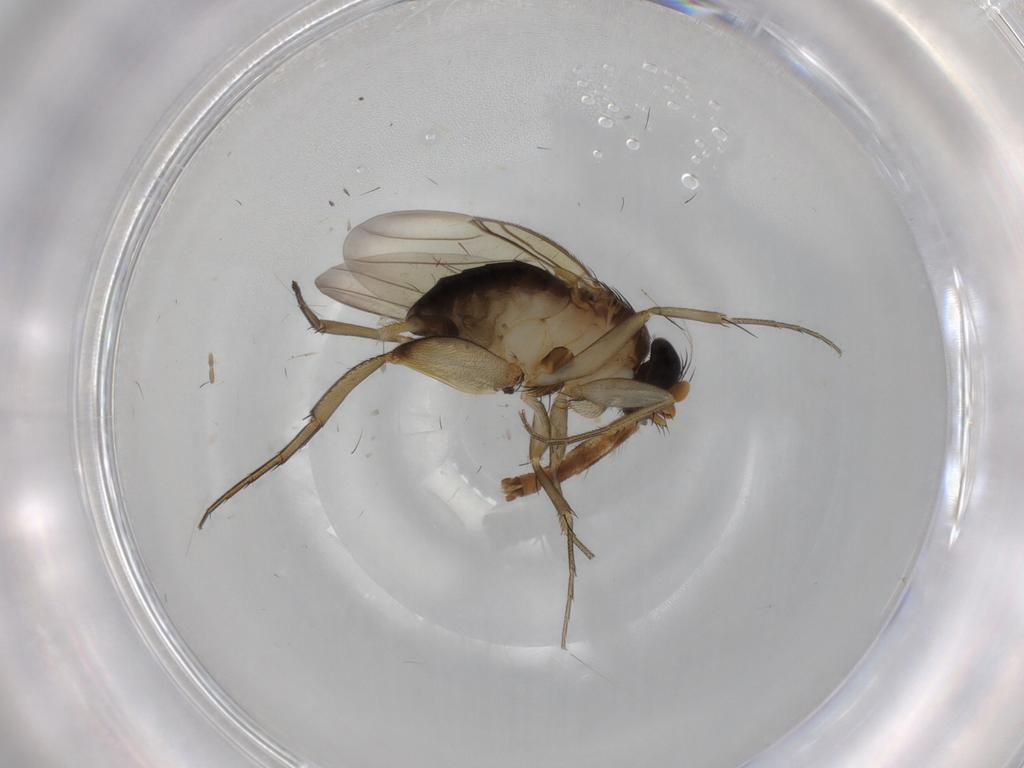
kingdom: Animalia
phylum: Arthropoda
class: Insecta
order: Diptera
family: Chironomidae
